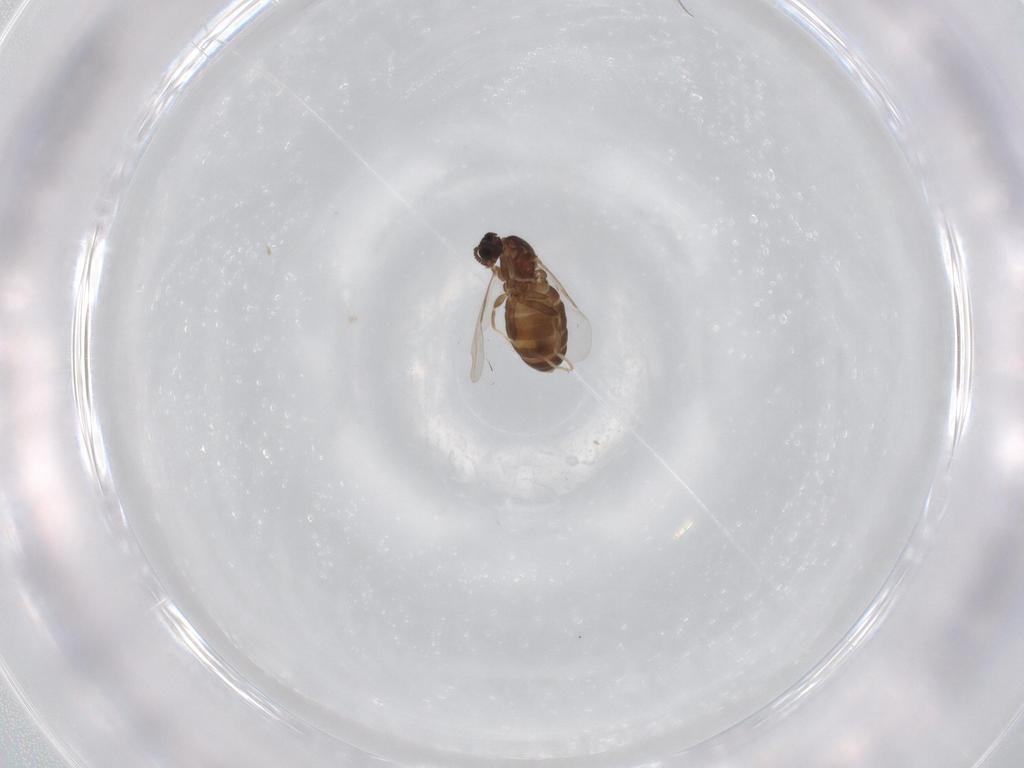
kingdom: Animalia
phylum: Arthropoda
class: Insecta
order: Diptera
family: Scatopsidae
